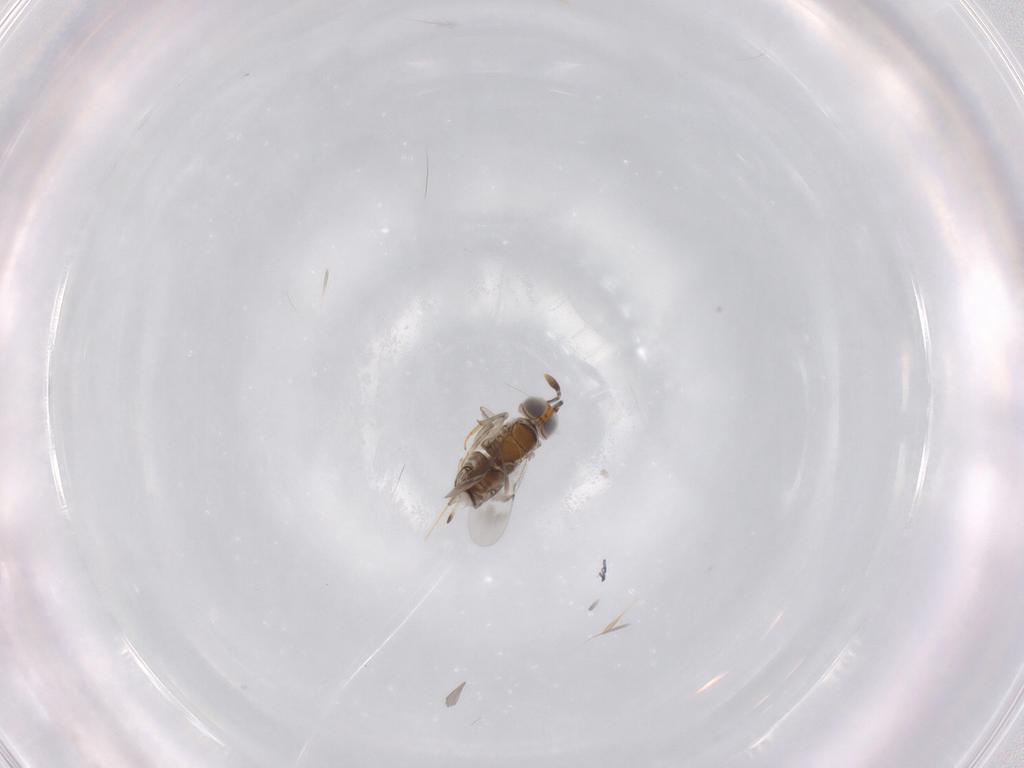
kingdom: Animalia
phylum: Arthropoda
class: Insecta
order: Hymenoptera
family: Encyrtidae
